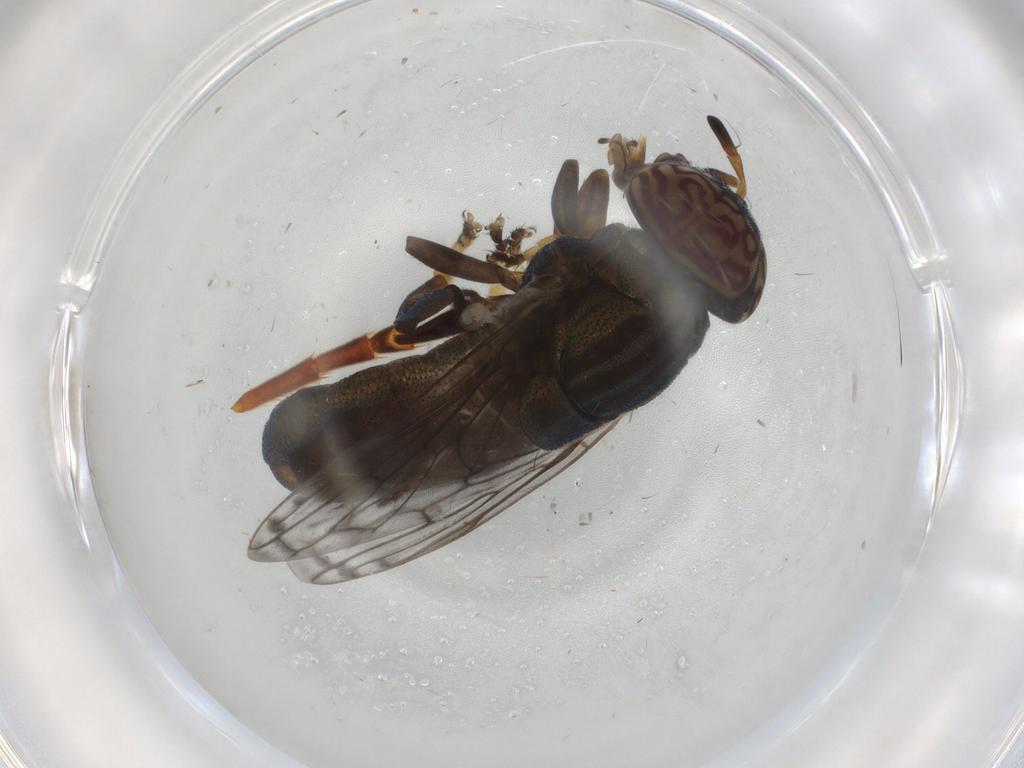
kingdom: Animalia
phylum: Arthropoda
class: Insecta
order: Diptera
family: Syrphidae
